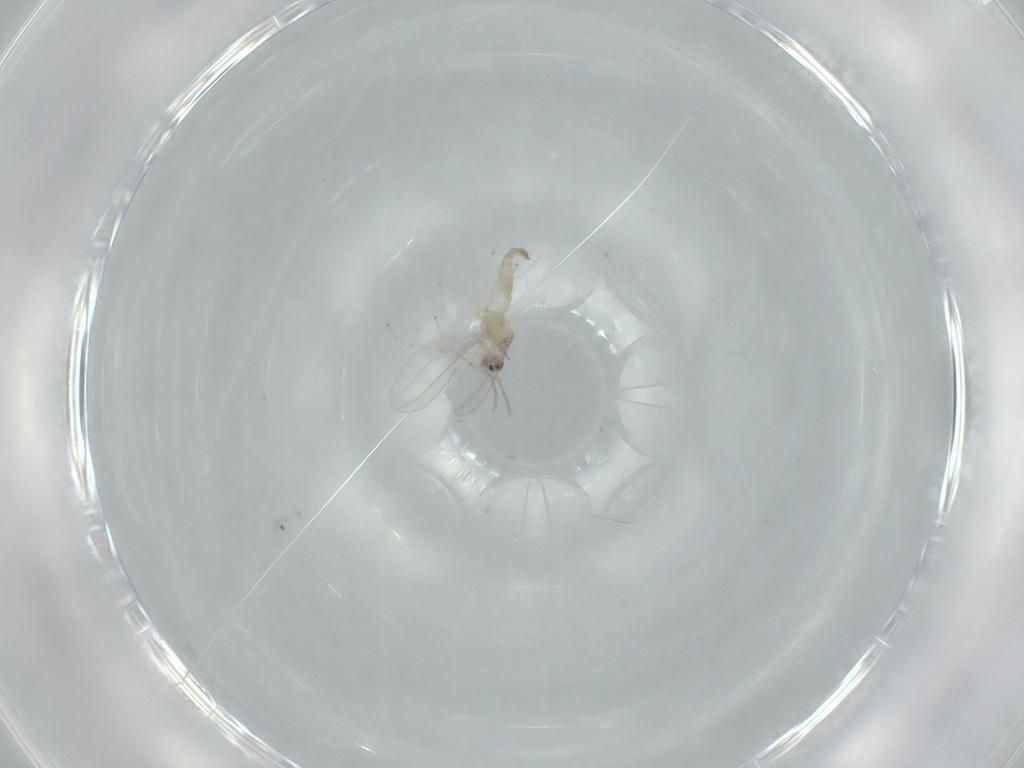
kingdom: Animalia
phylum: Arthropoda
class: Insecta
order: Diptera
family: Cecidomyiidae
